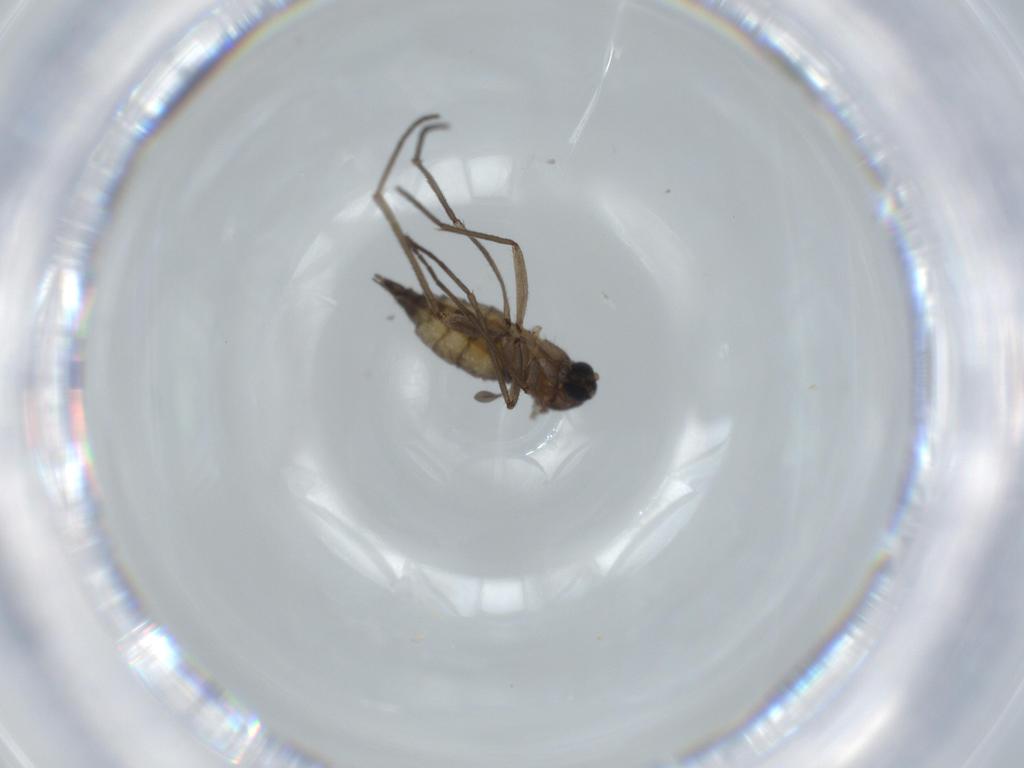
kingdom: Animalia
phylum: Arthropoda
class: Insecta
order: Diptera
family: Sciaridae
